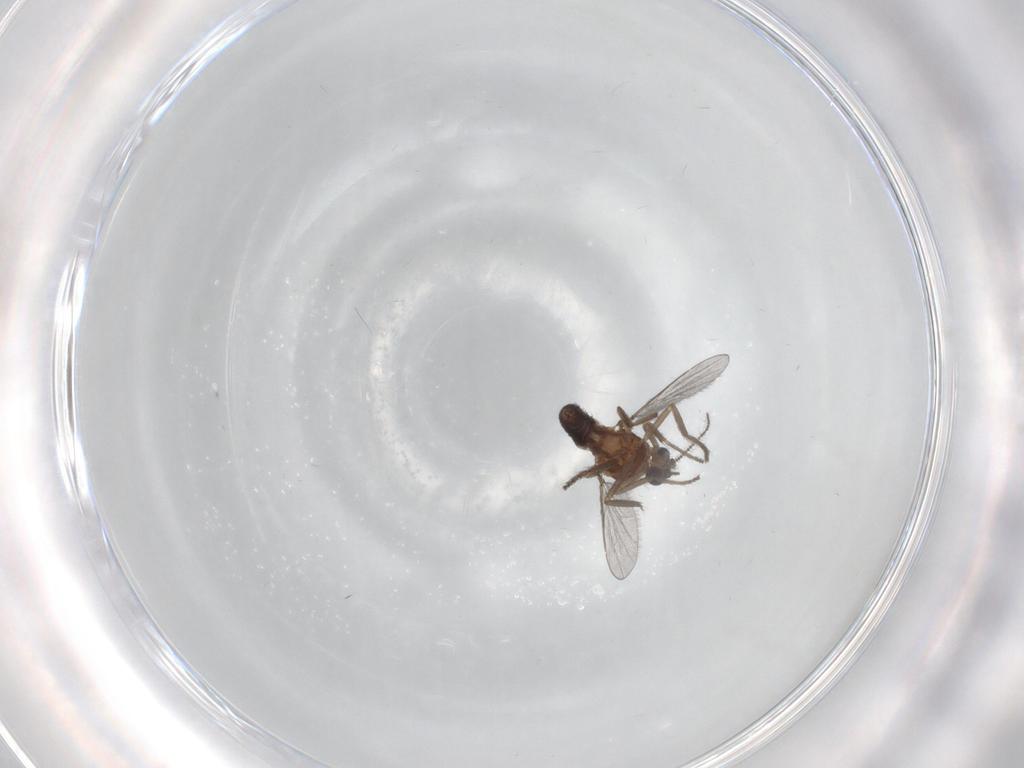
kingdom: Animalia
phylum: Arthropoda
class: Insecta
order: Diptera
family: Ceratopogonidae
